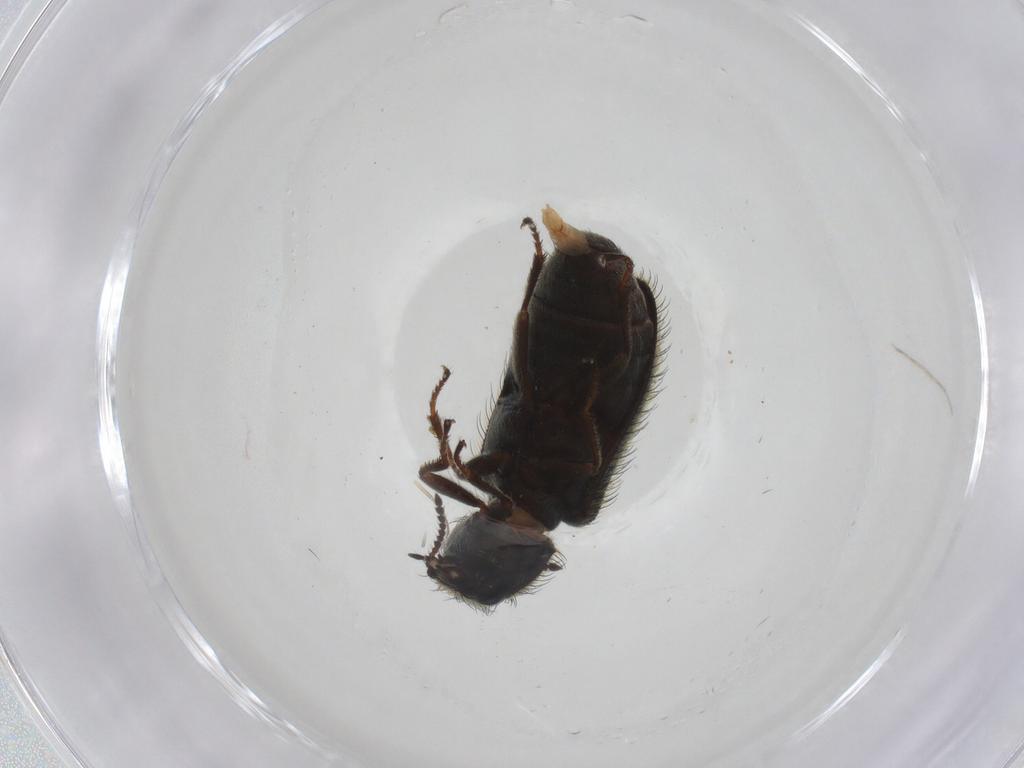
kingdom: Animalia
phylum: Arthropoda
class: Insecta
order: Coleoptera
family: Melyridae
